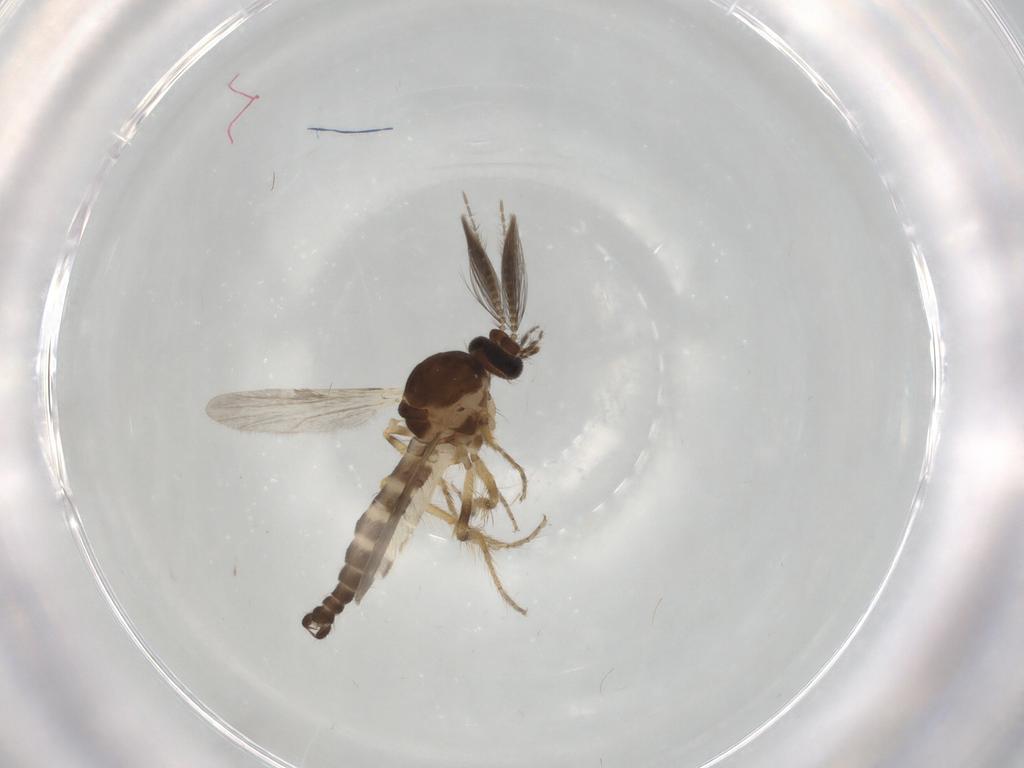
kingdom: Animalia
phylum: Arthropoda
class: Insecta
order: Diptera
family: Ceratopogonidae
